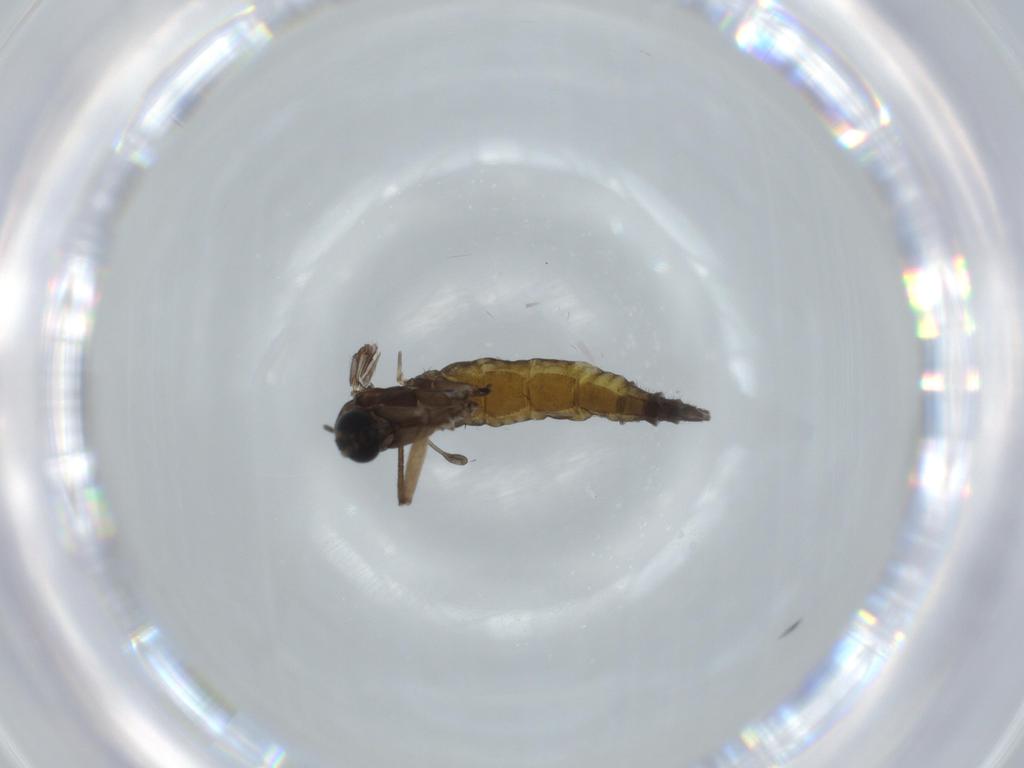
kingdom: Animalia
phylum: Arthropoda
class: Insecta
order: Diptera
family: Sciaridae
